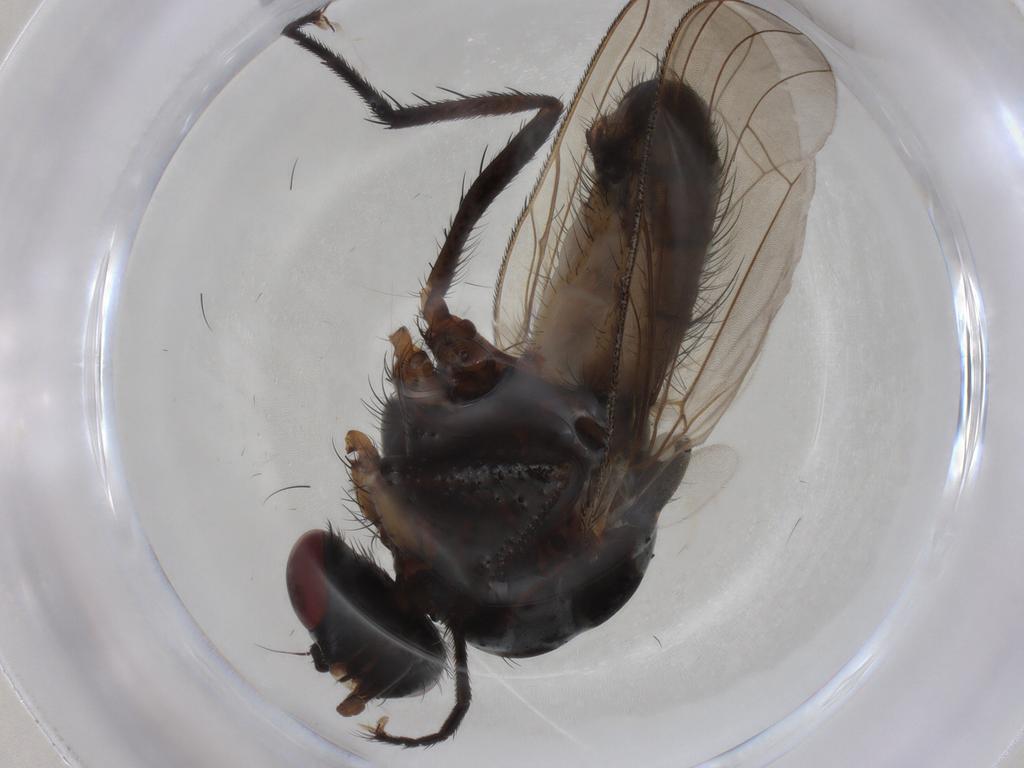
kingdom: Animalia
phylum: Arthropoda
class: Insecta
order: Diptera
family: Anthomyiidae
